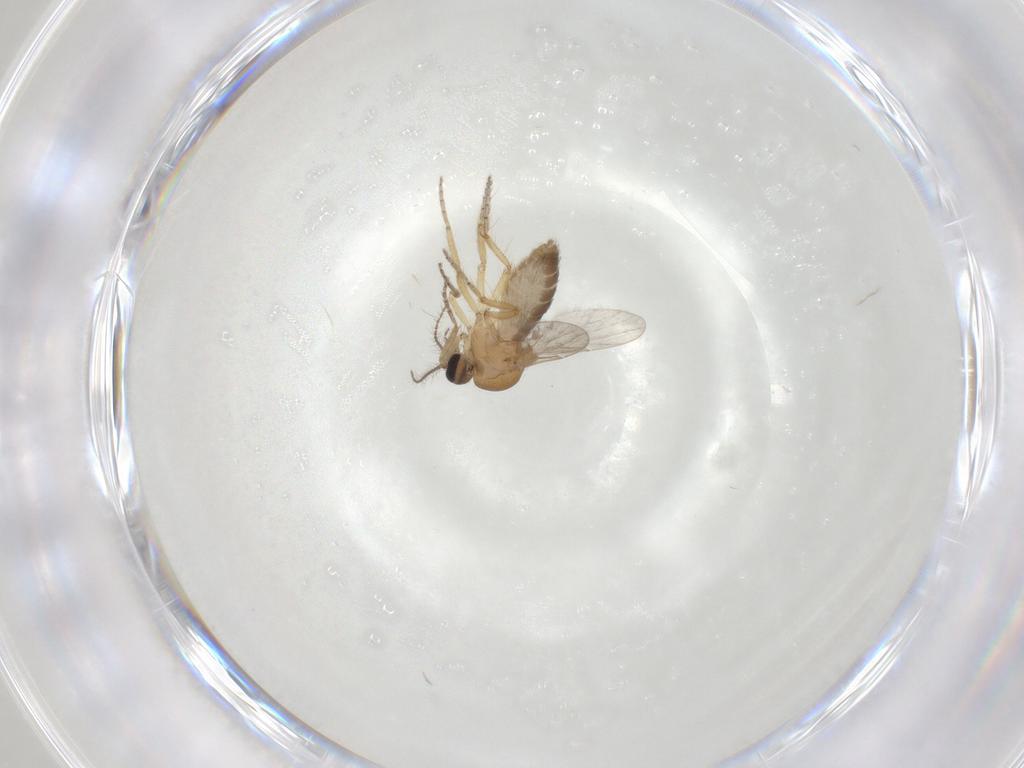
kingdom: Animalia
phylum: Arthropoda
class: Insecta
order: Diptera
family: Ceratopogonidae
